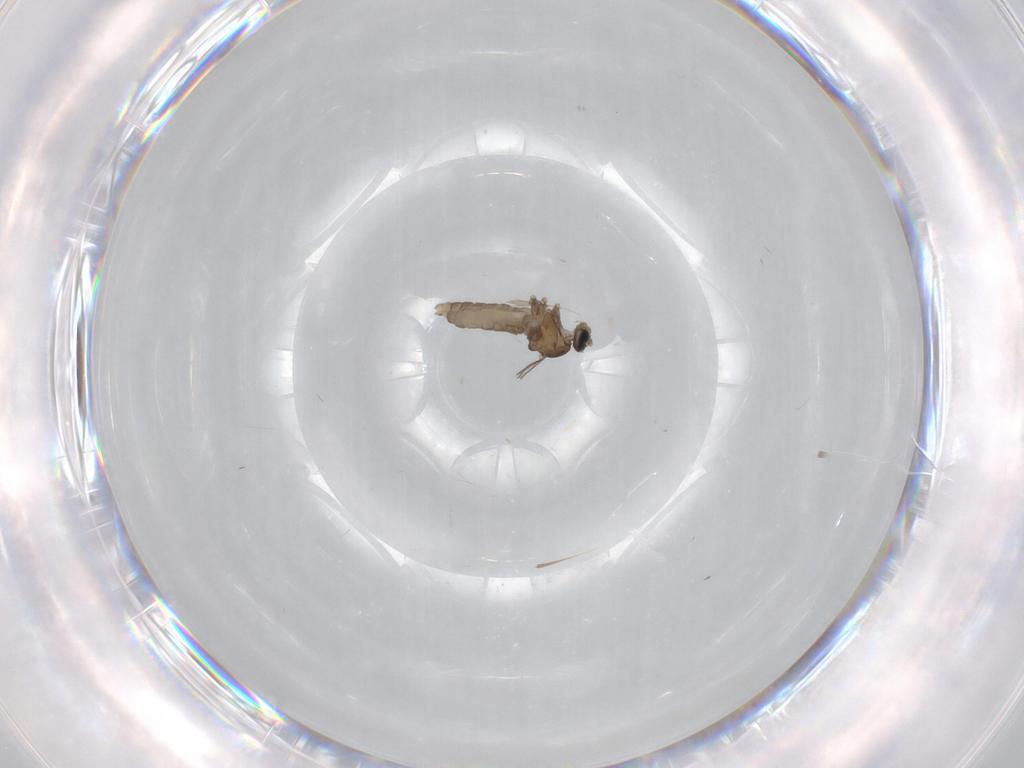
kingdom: Animalia
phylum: Arthropoda
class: Insecta
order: Diptera
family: Cecidomyiidae
